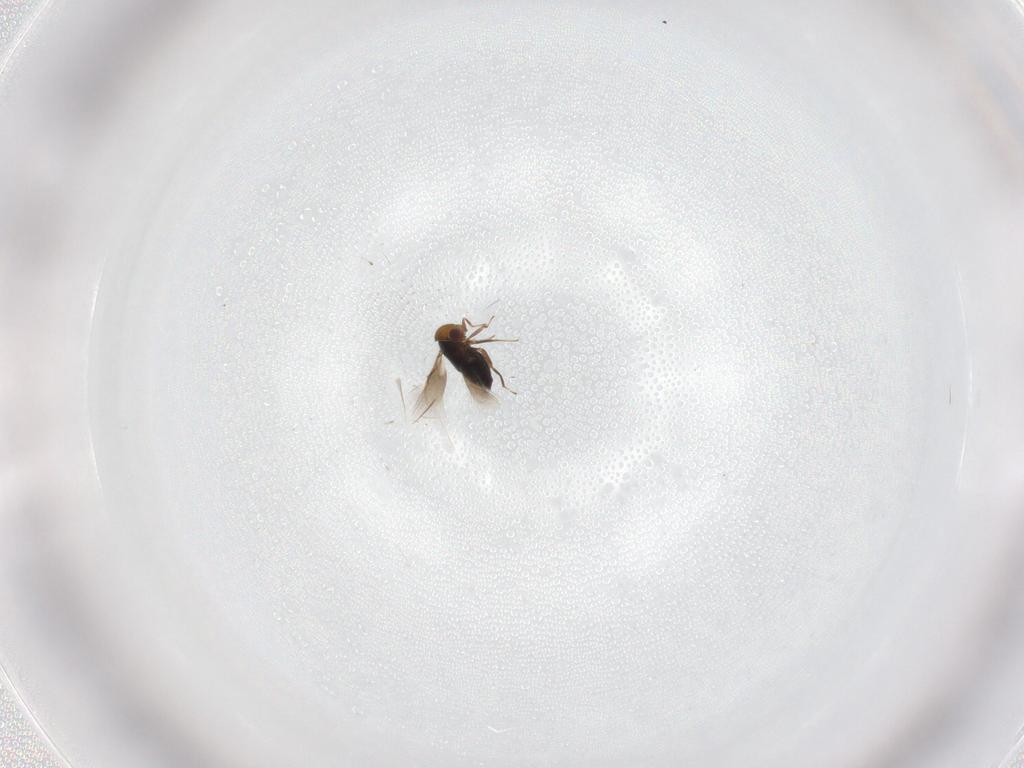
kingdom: Animalia
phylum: Arthropoda
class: Insecta
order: Hymenoptera
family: Signiphoridae
